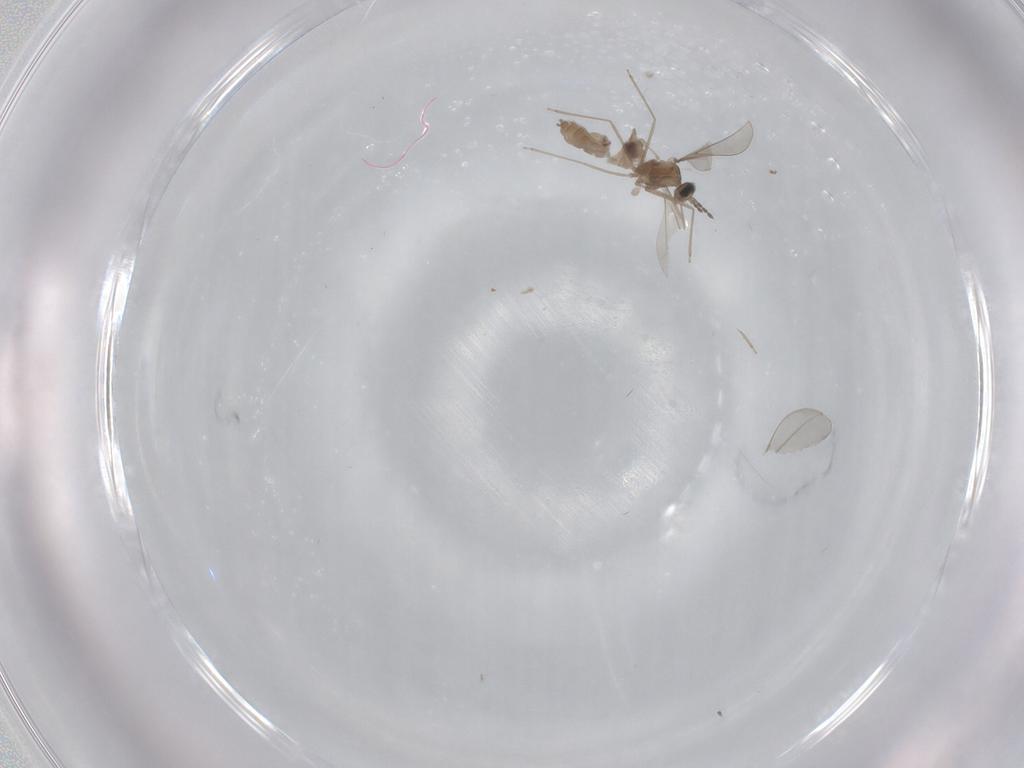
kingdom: Animalia
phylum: Arthropoda
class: Insecta
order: Diptera
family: Cecidomyiidae
